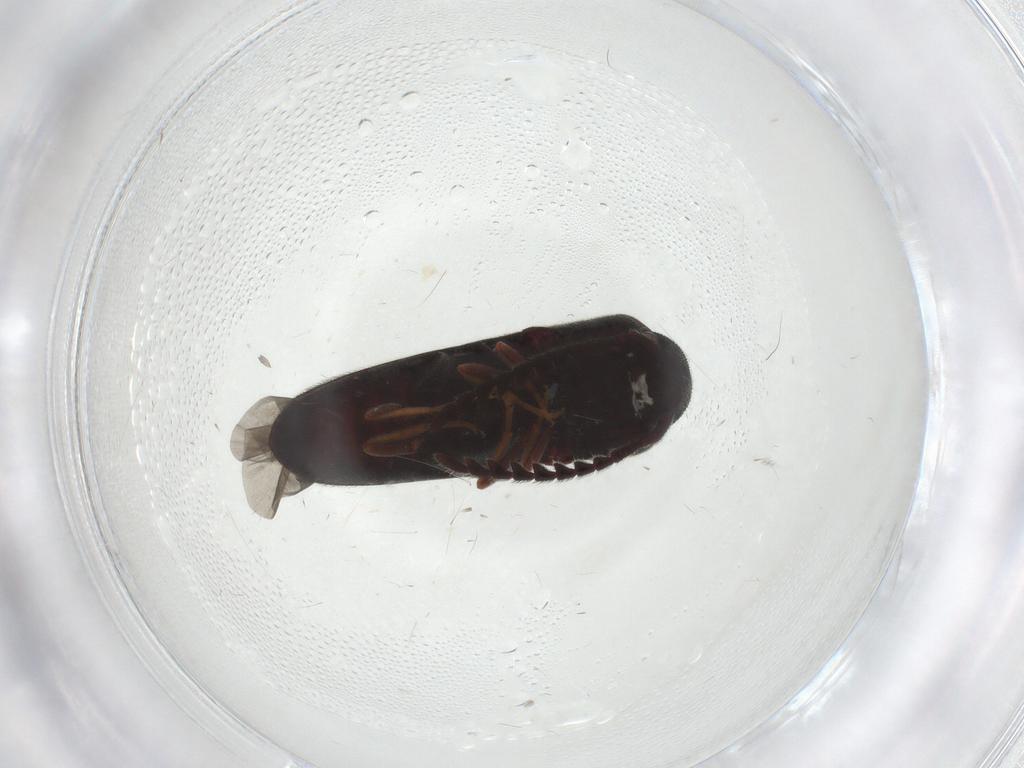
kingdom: Animalia
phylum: Arthropoda
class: Insecta
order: Coleoptera
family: Eucnemidae
